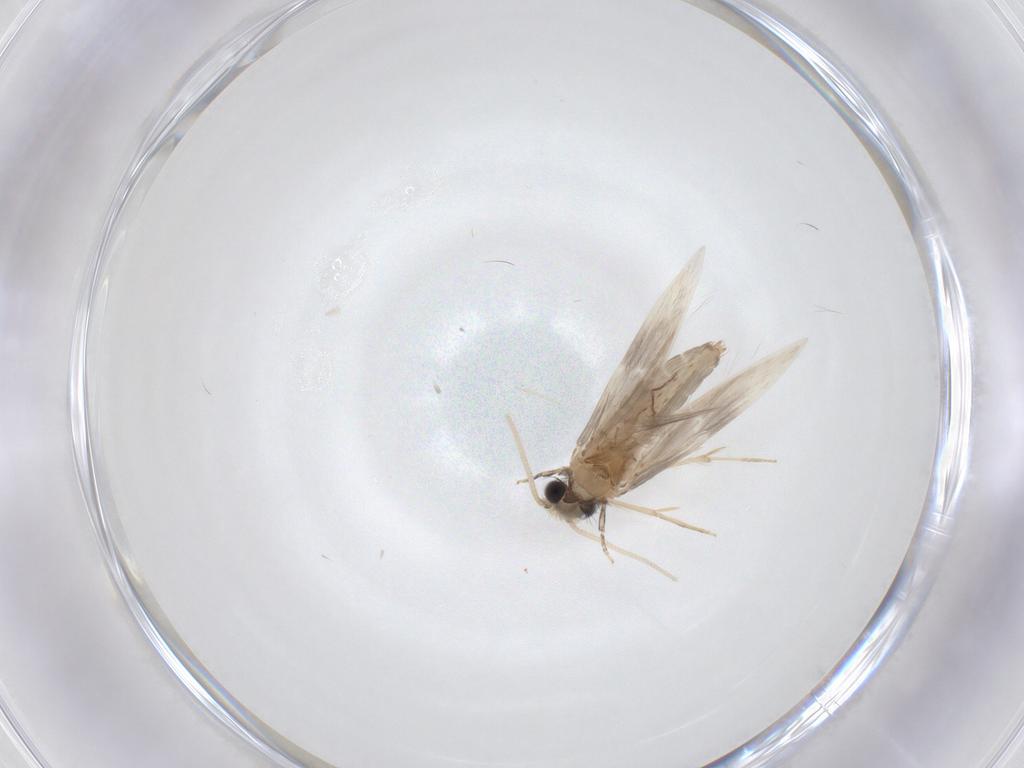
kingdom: Animalia
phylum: Arthropoda
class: Insecta
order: Trichoptera
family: Hydroptilidae
